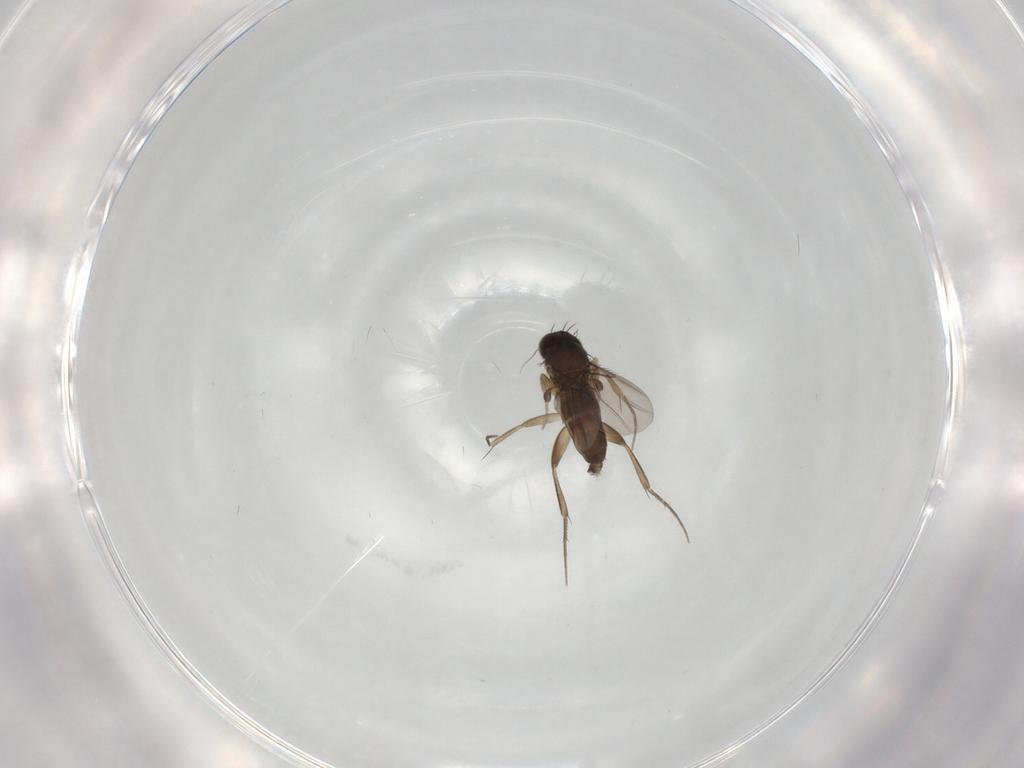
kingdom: Animalia
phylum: Arthropoda
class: Insecta
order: Diptera
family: Phoridae
